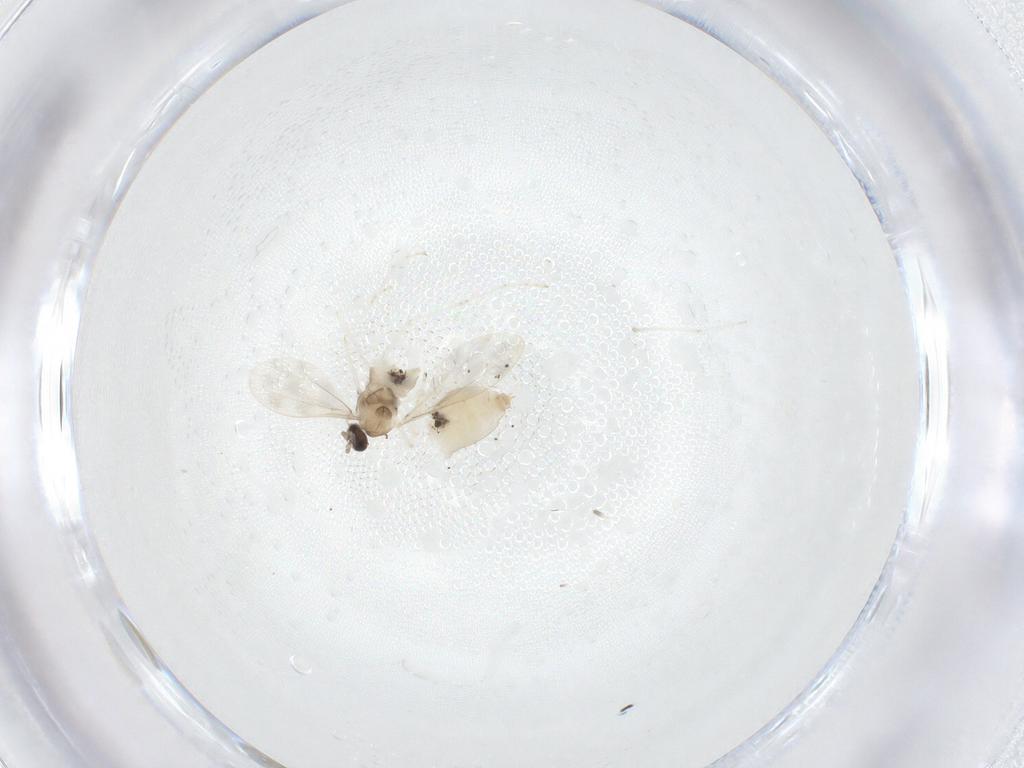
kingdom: Animalia
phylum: Arthropoda
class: Insecta
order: Diptera
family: Cecidomyiidae
